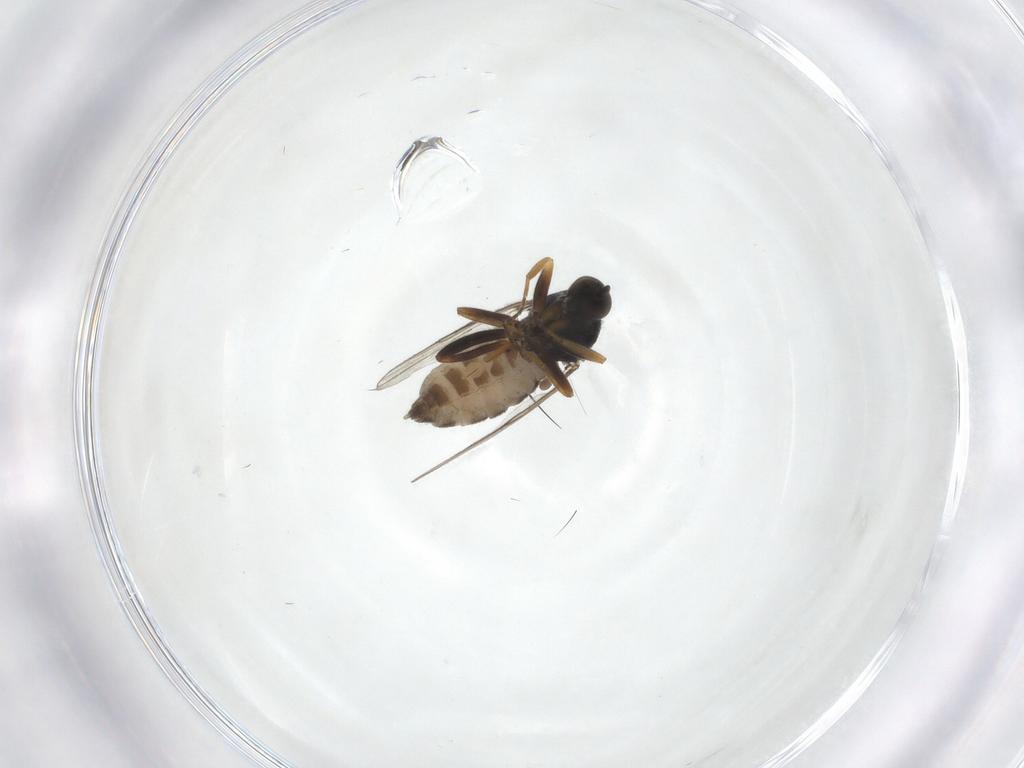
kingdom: Animalia
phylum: Arthropoda
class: Insecta
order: Diptera
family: Hybotidae
